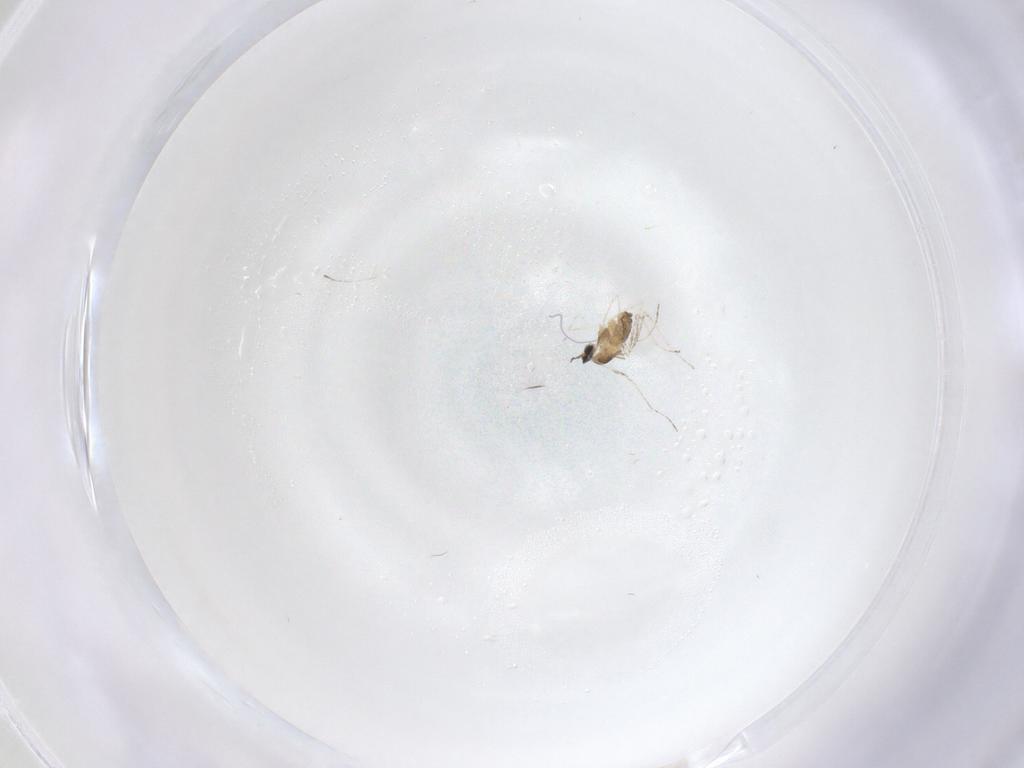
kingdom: Animalia
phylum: Arthropoda
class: Insecta
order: Diptera
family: Cecidomyiidae
